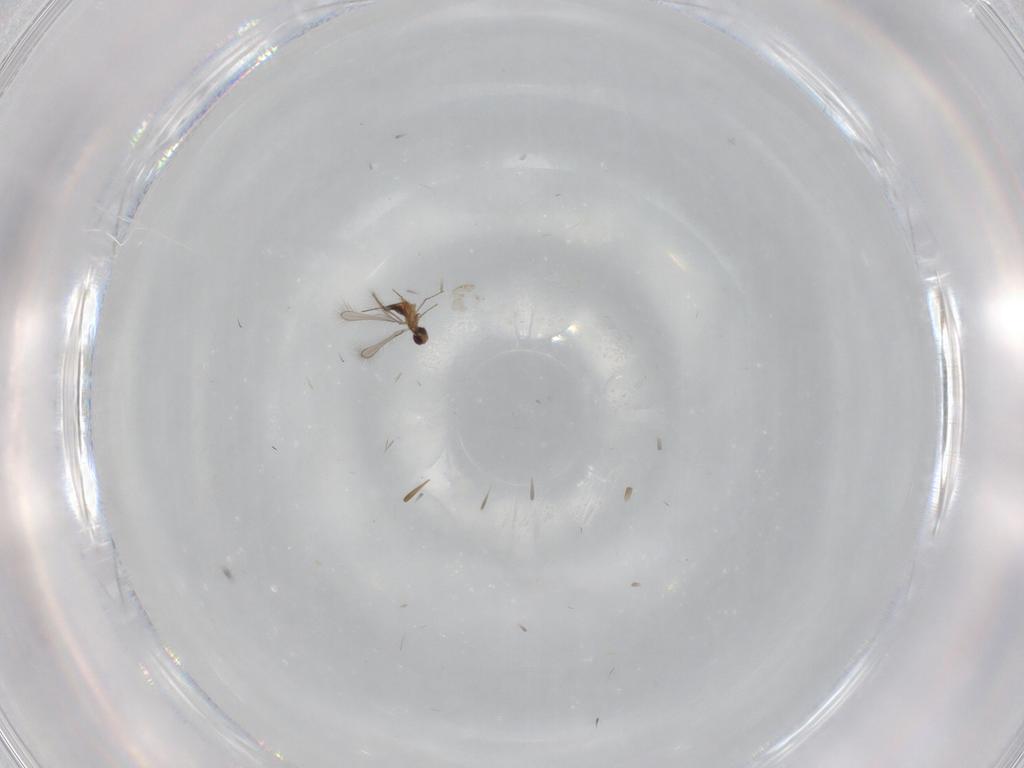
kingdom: Animalia
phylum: Arthropoda
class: Insecta
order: Hymenoptera
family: Mymaridae
